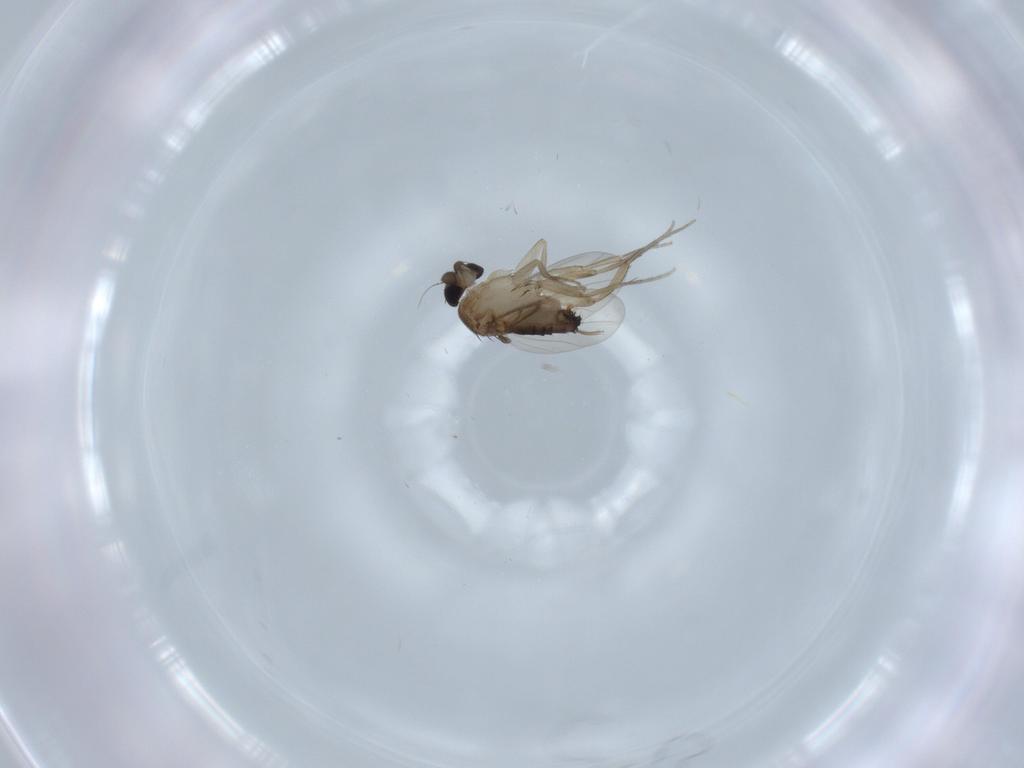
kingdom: Animalia
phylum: Arthropoda
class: Insecta
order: Diptera
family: Phoridae
